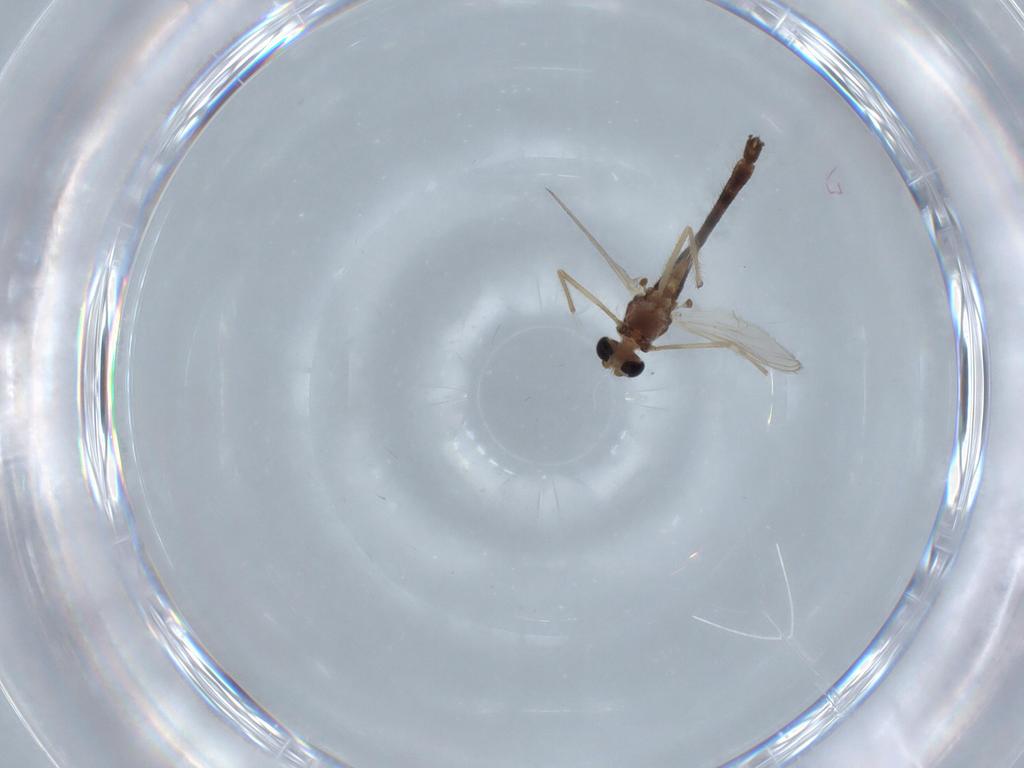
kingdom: Animalia
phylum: Arthropoda
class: Insecta
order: Diptera
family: Chironomidae
